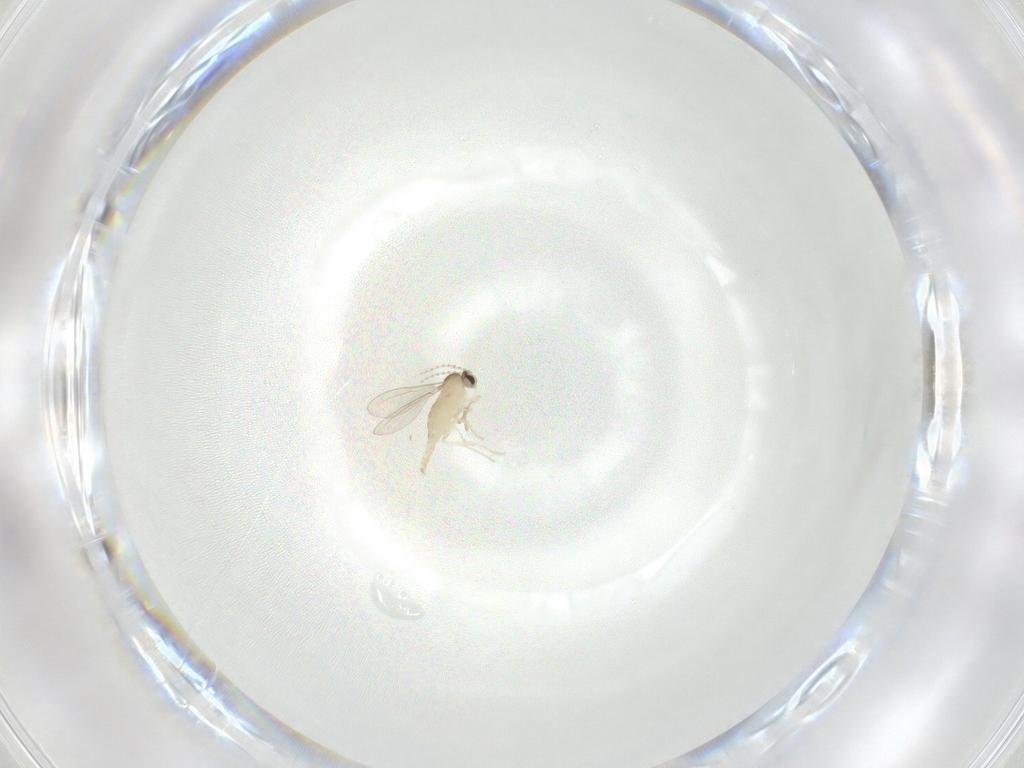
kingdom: Animalia
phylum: Arthropoda
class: Insecta
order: Diptera
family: Cecidomyiidae
